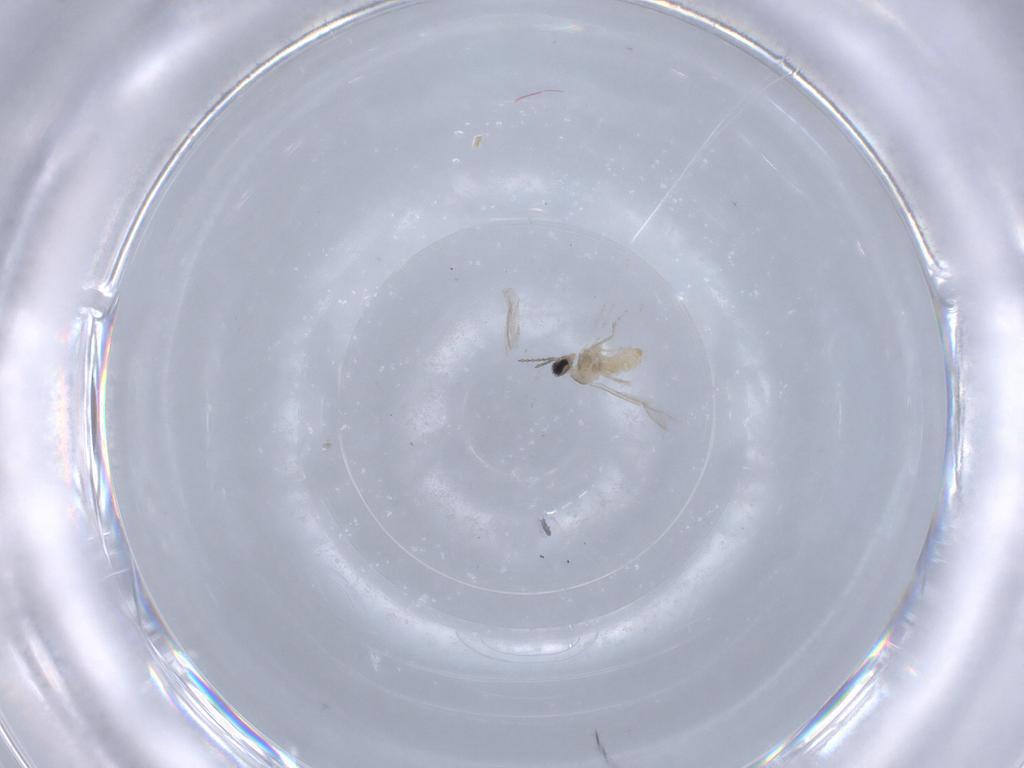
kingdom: Animalia
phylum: Arthropoda
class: Insecta
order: Diptera
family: Cecidomyiidae
